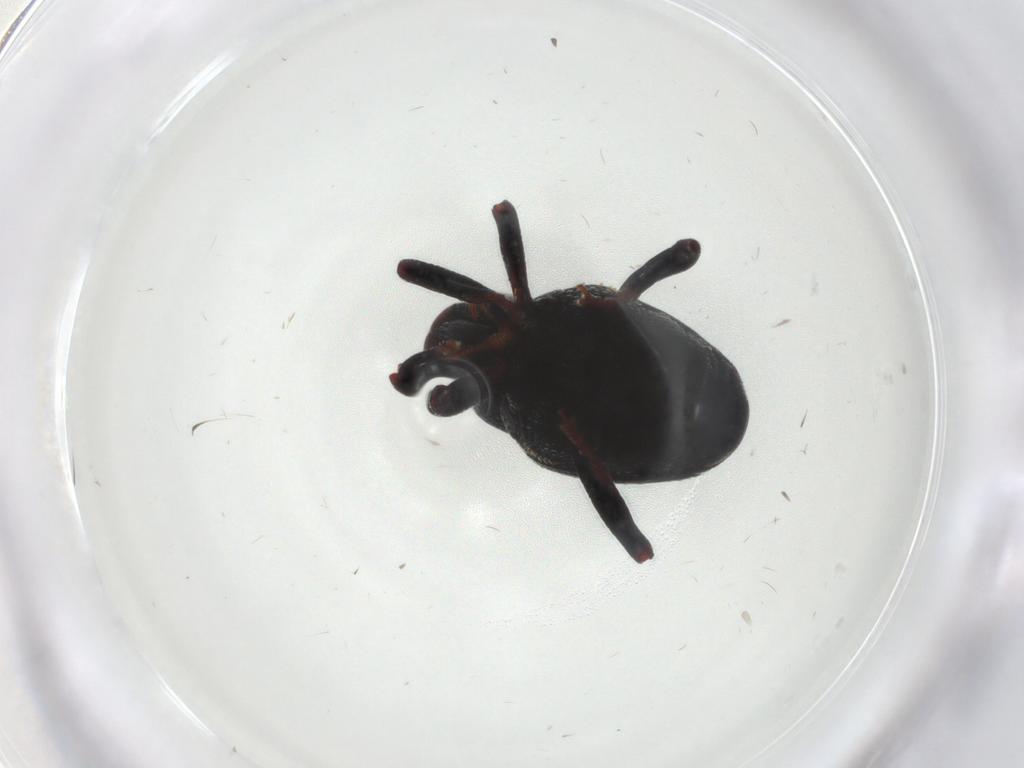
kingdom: Animalia
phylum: Arthropoda
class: Insecta
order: Coleoptera
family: Curculionidae
